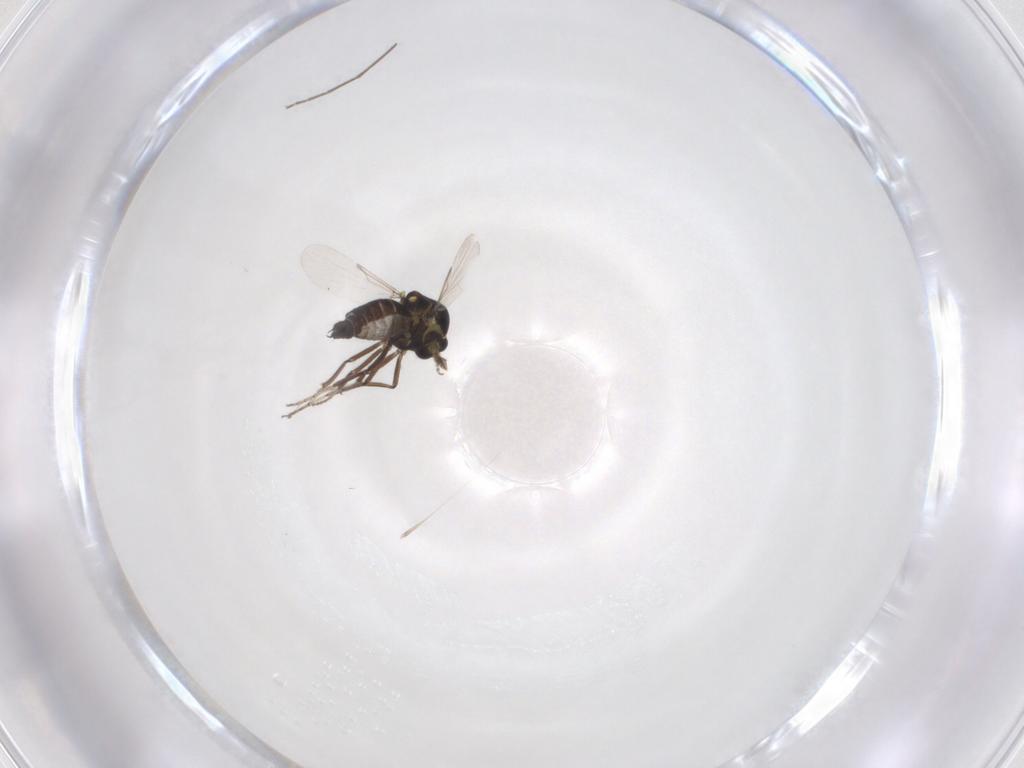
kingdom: Animalia
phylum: Arthropoda
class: Insecta
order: Diptera
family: Ceratopogonidae
